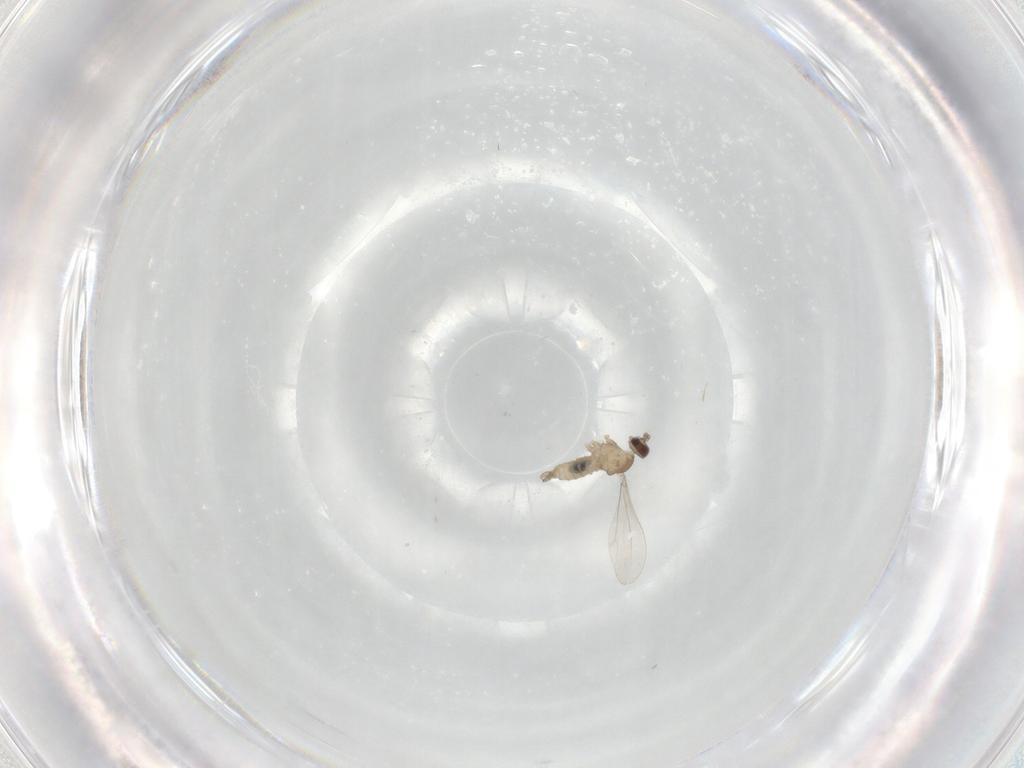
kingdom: Animalia
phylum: Arthropoda
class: Insecta
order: Diptera
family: Cecidomyiidae
